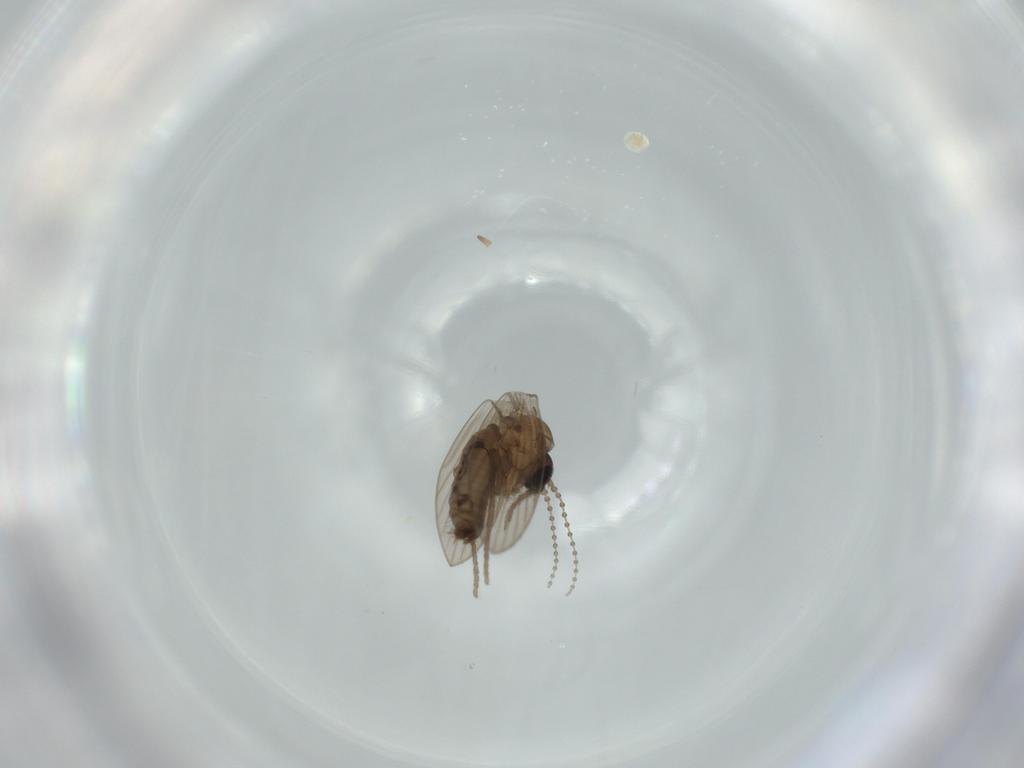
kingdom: Animalia
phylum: Arthropoda
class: Insecta
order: Diptera
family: Psychodidae
